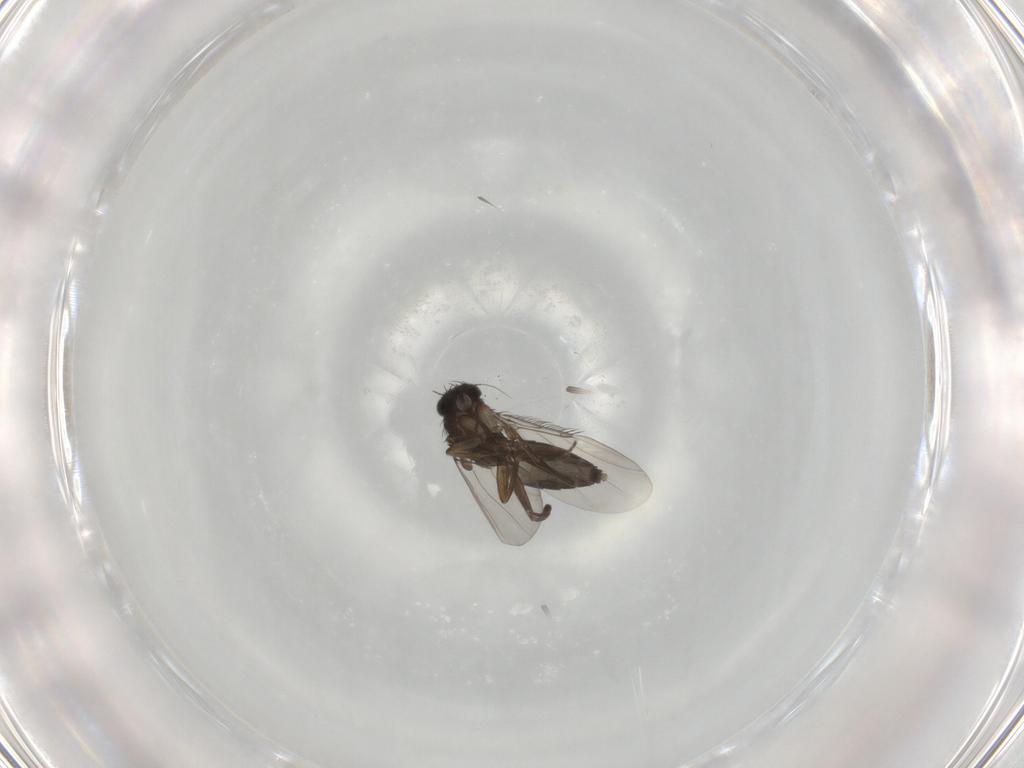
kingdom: Animalia
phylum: Arthropoda
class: Insecta
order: Diptera
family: Phoridae
